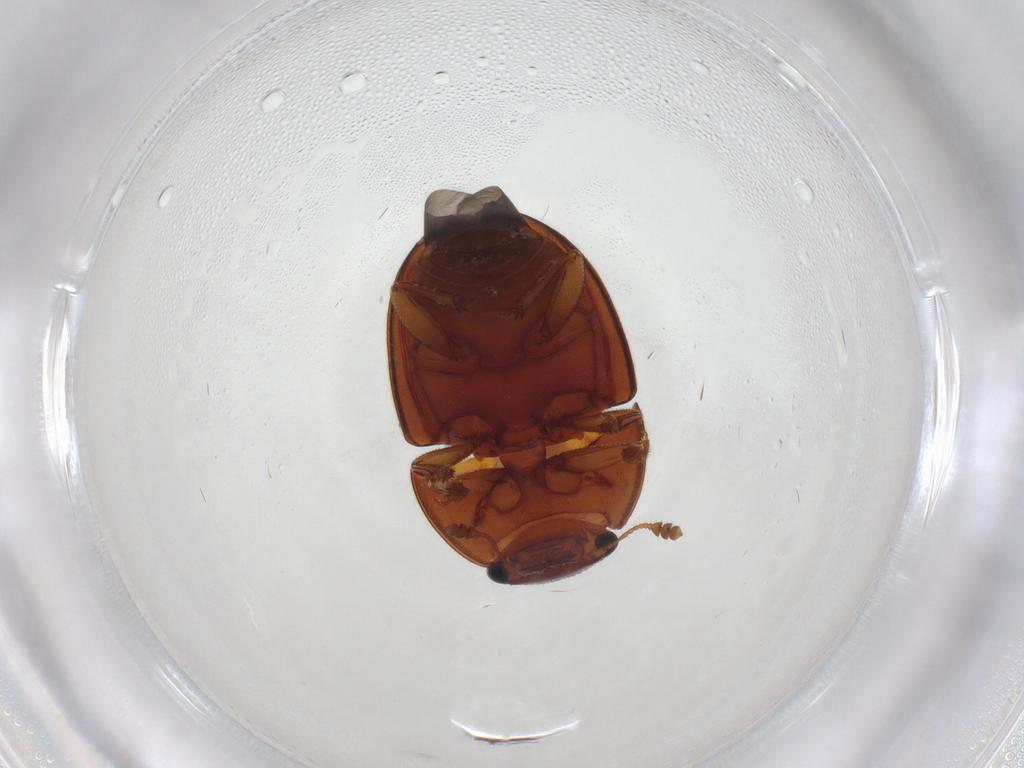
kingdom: Animalia
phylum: Arthropoda
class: Insecta
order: Coleoptera
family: Nitidulidae
